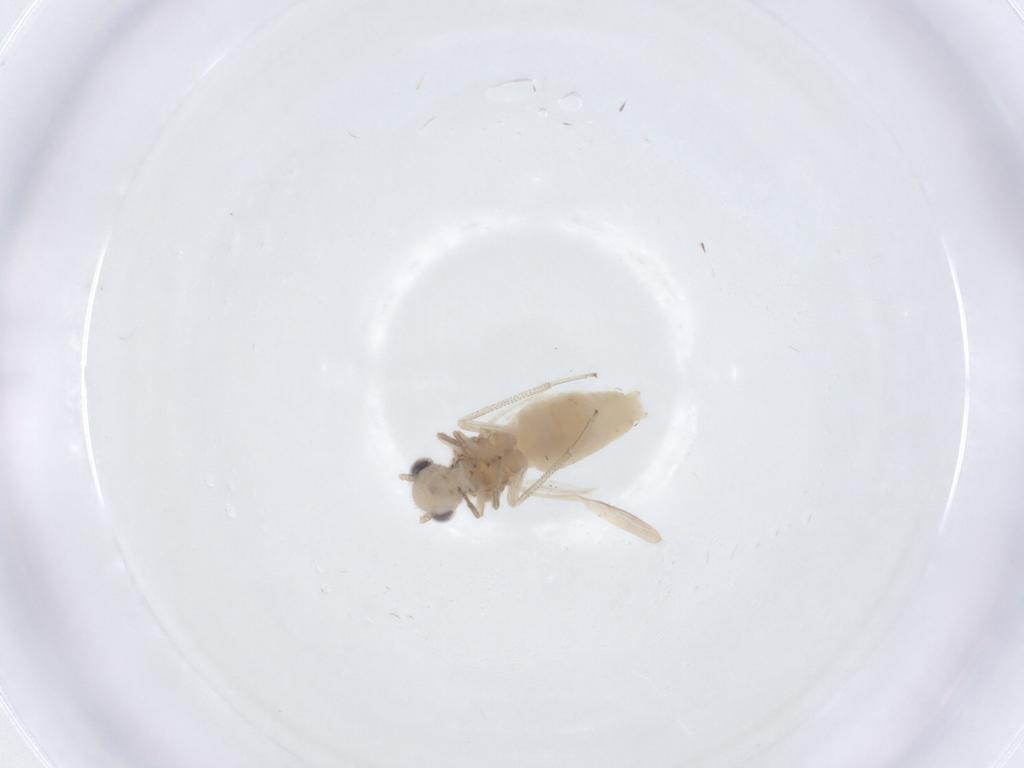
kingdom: Animalia
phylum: Arthropoda
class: Insecta
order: Psocodea
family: Caeciliusidae
